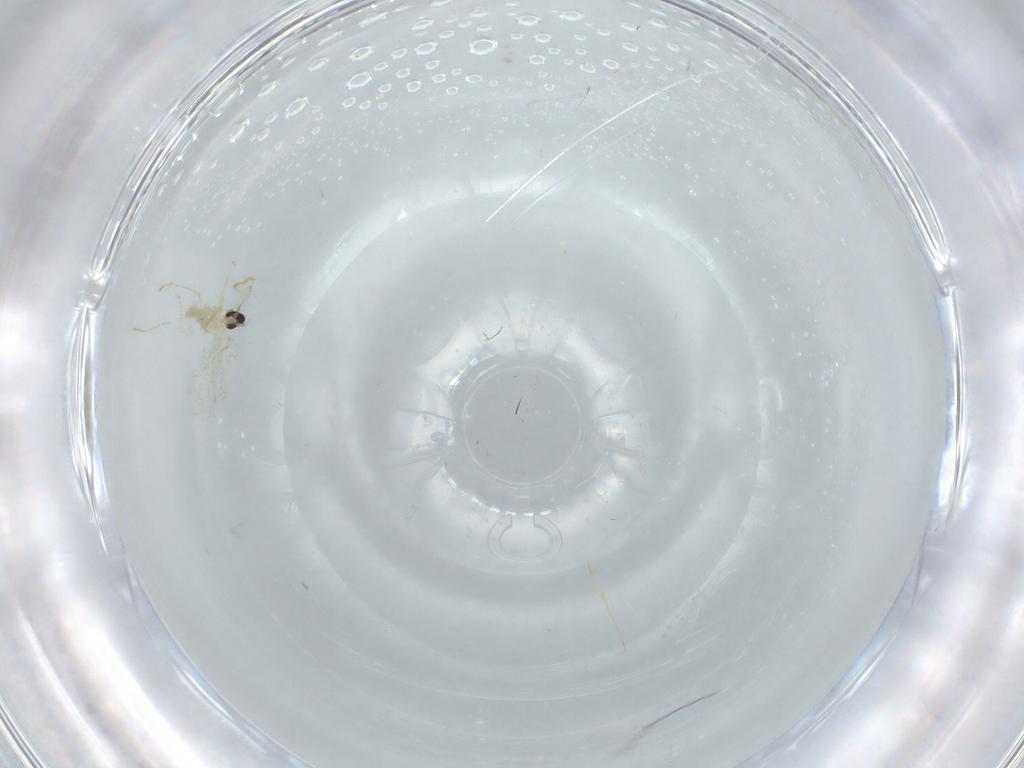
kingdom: Animalia
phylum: Arthropoda
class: Insecta
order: Diptera
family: Cecidomyiidae
